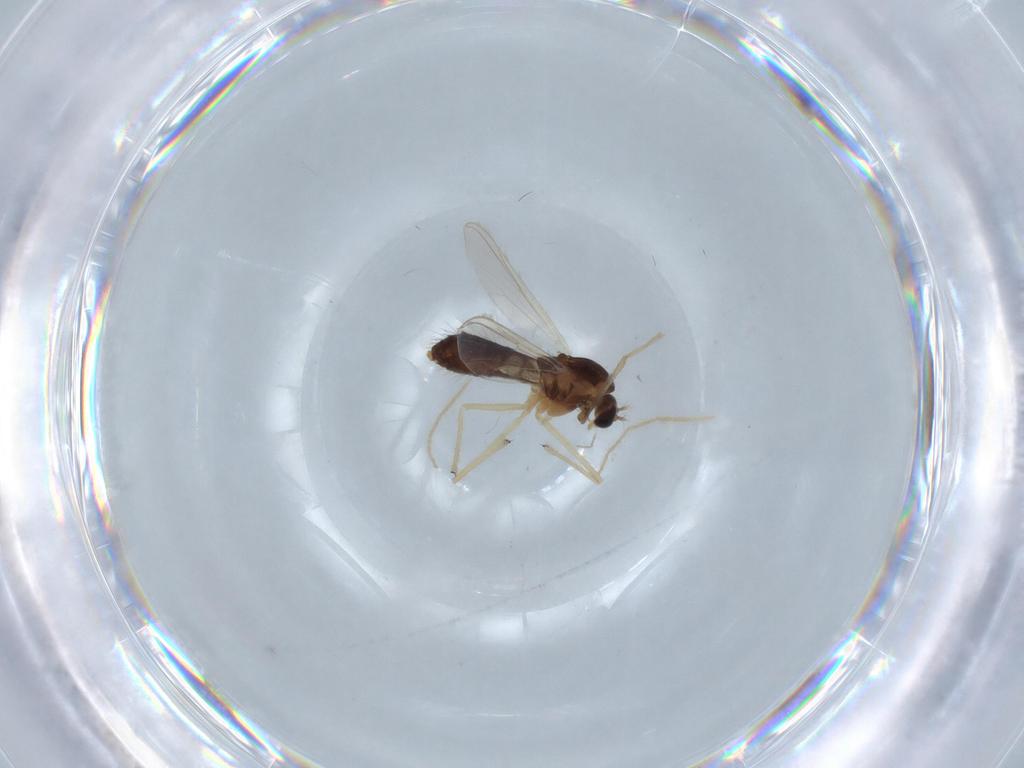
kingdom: Animalia
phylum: Arthropoda
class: Insecta
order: Diptera
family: Chironomidae
